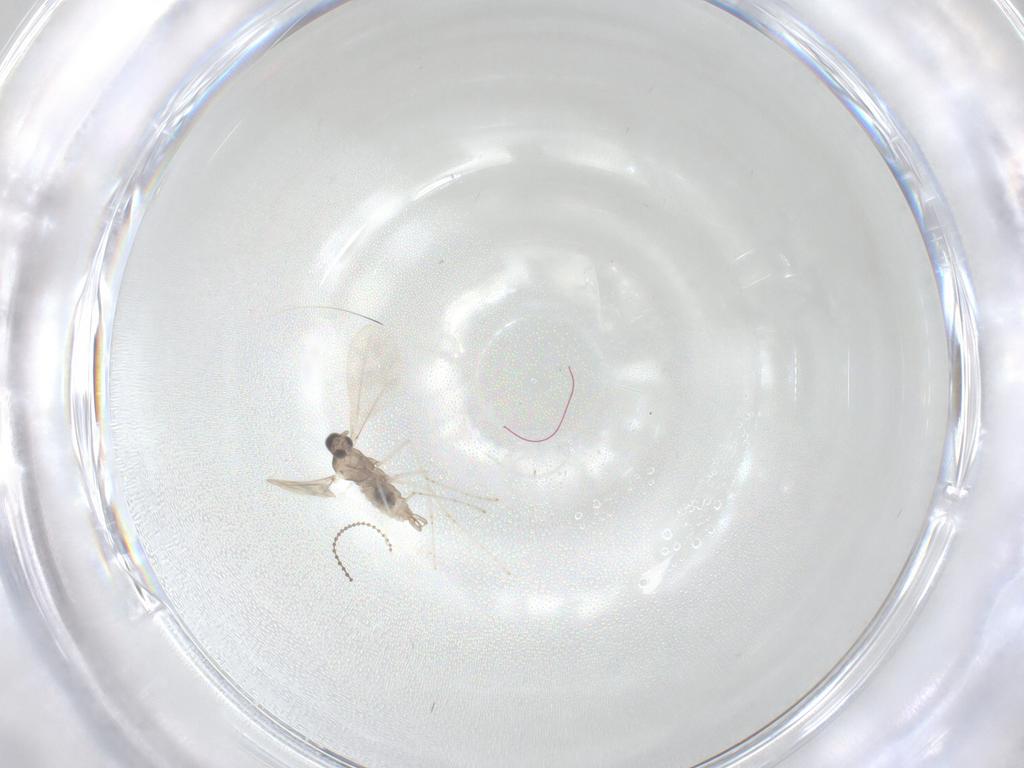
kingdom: Animalia
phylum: Arthropoda
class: Insecta
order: Diptera
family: Cecidomyiidae
